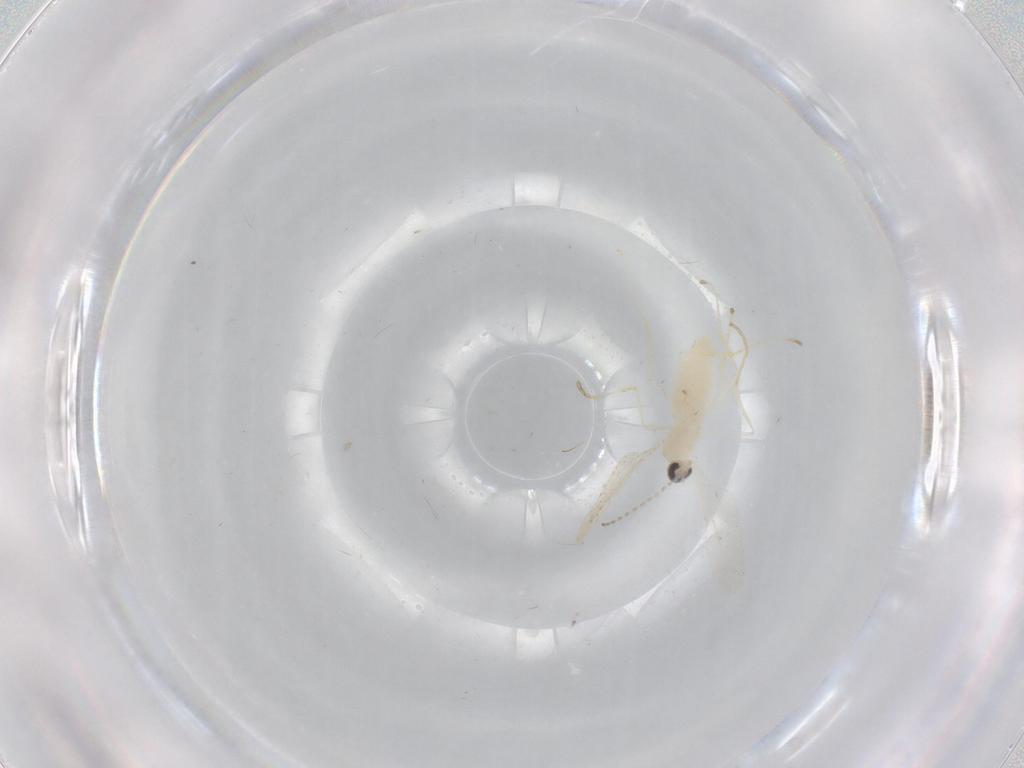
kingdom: Animalia
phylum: Arthropoda
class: Insecta
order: Diptera
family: Cecidomyiidae
